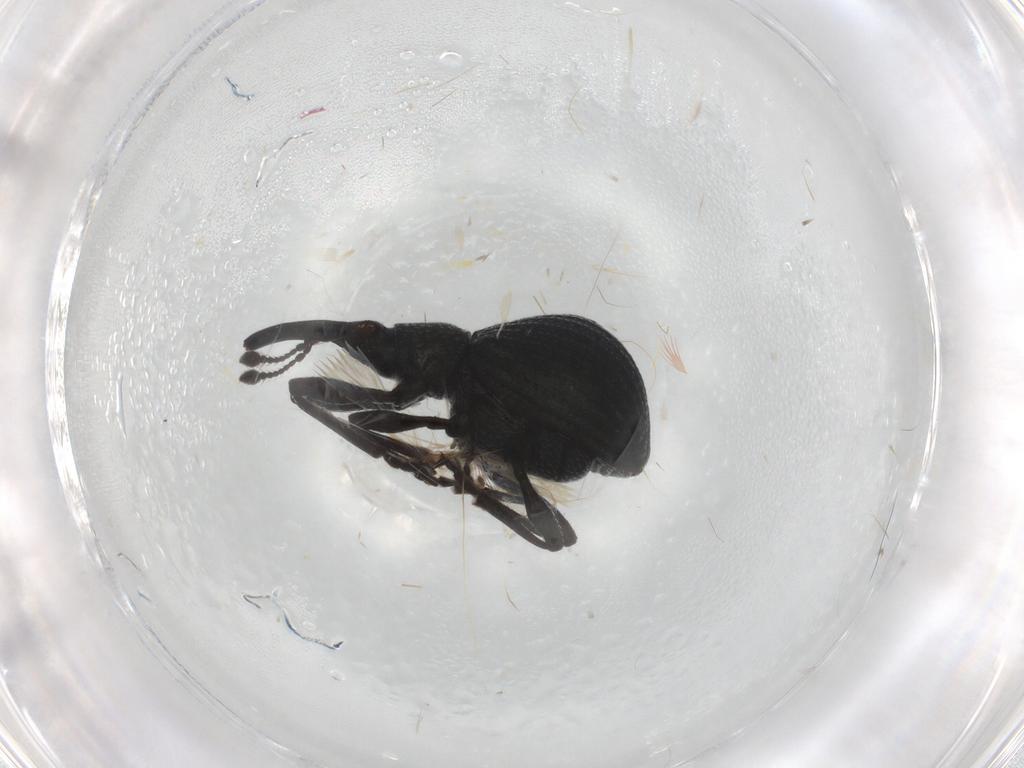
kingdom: Animalia
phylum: Arthropoda
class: Insecta
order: Coleoptera
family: Brentidae
